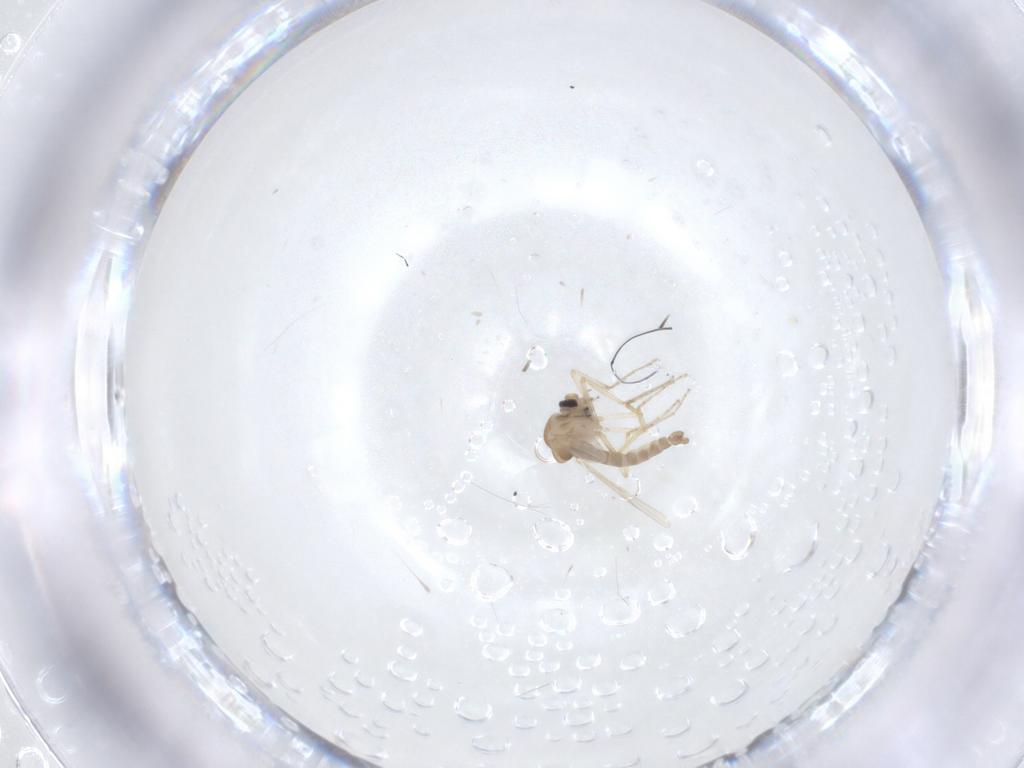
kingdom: Animalia
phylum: Arthropoda
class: Insecta
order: Diptera
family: Ceratopogonidae
